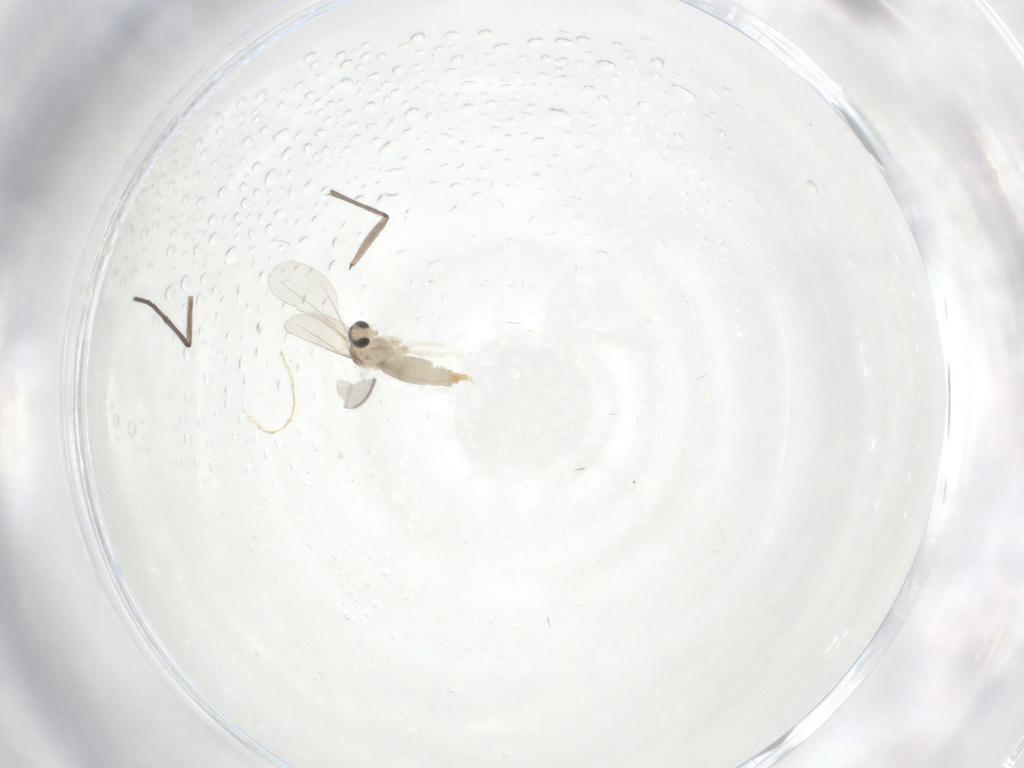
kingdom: Animalia
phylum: Arthropoda
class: Insecta
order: Diptera
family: Sciaridae
